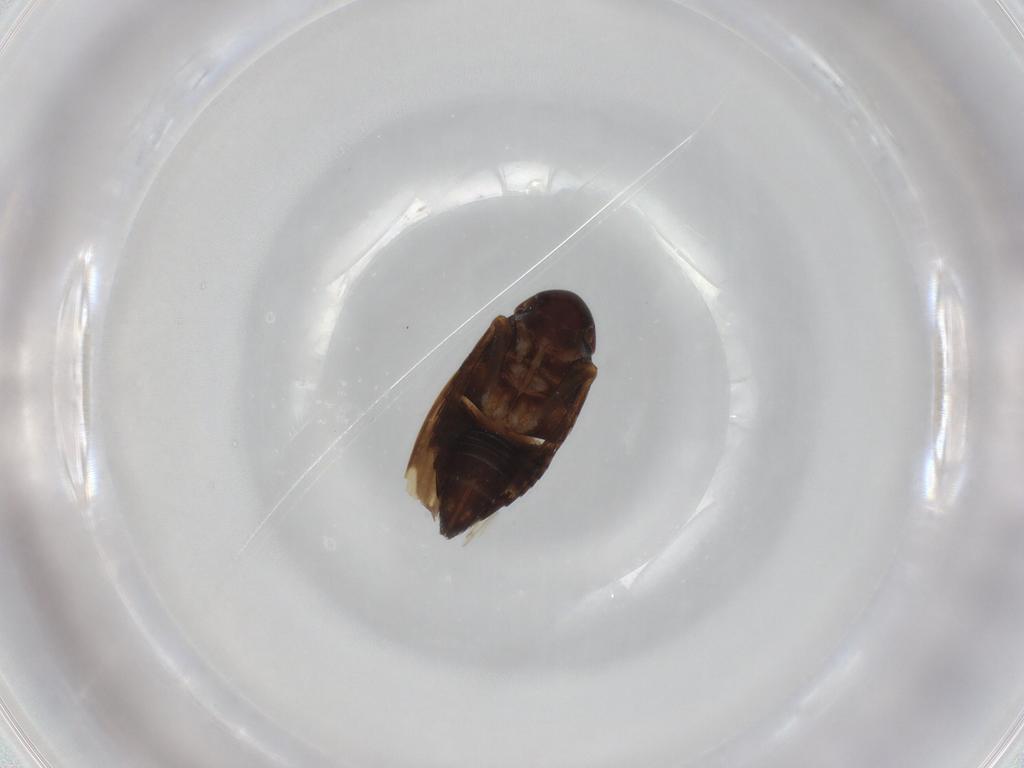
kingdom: Animalia
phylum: Arthropoda
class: Insecta
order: Hemiptera
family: Cicadellidae
